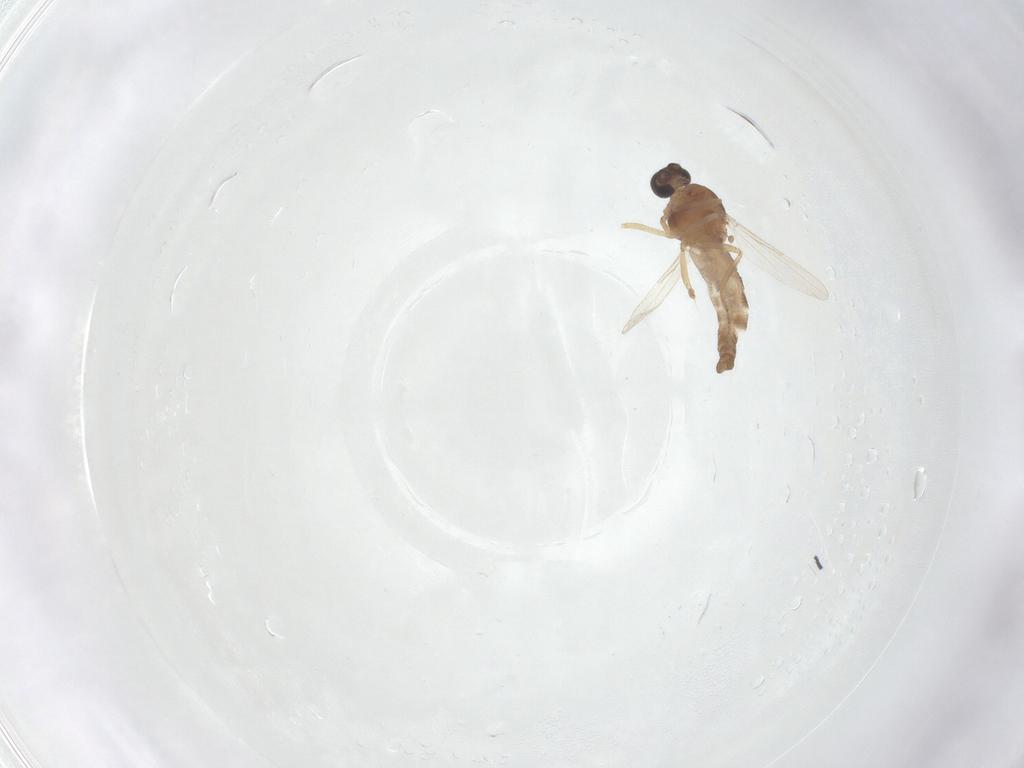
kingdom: Animalia
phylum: Arthropoda
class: Insecta
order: Diptera
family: Ceratopogonidae
